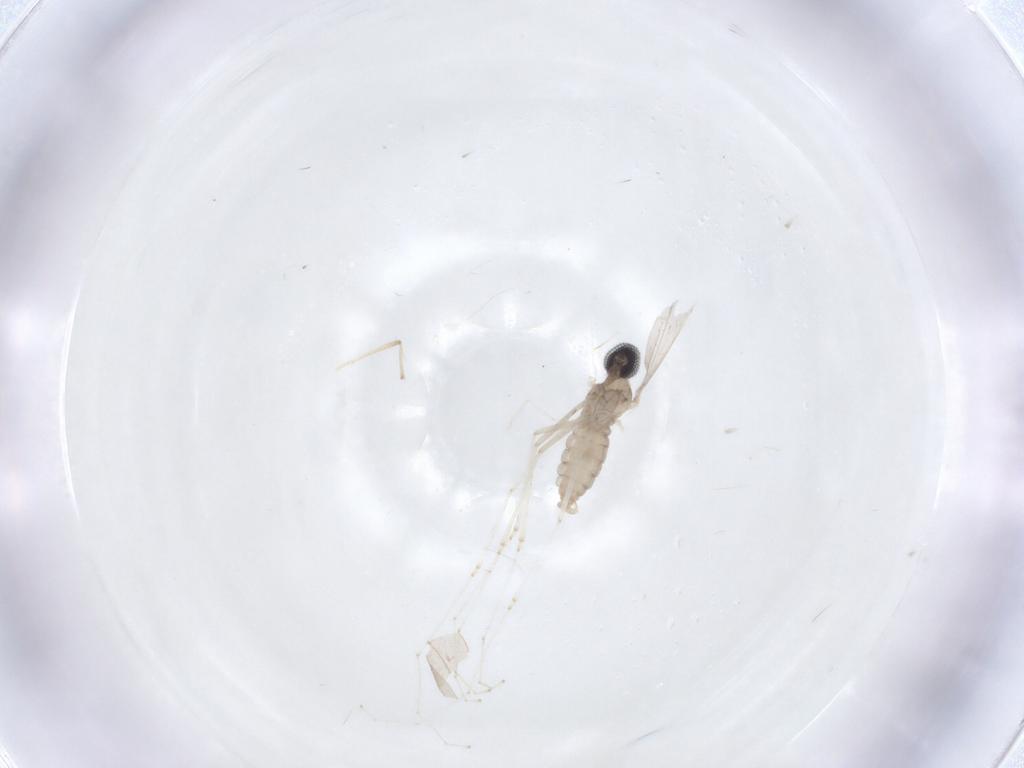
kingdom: Animalia
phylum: Arthropoda
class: Insecta
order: Diptera
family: Cecidomyiidae
